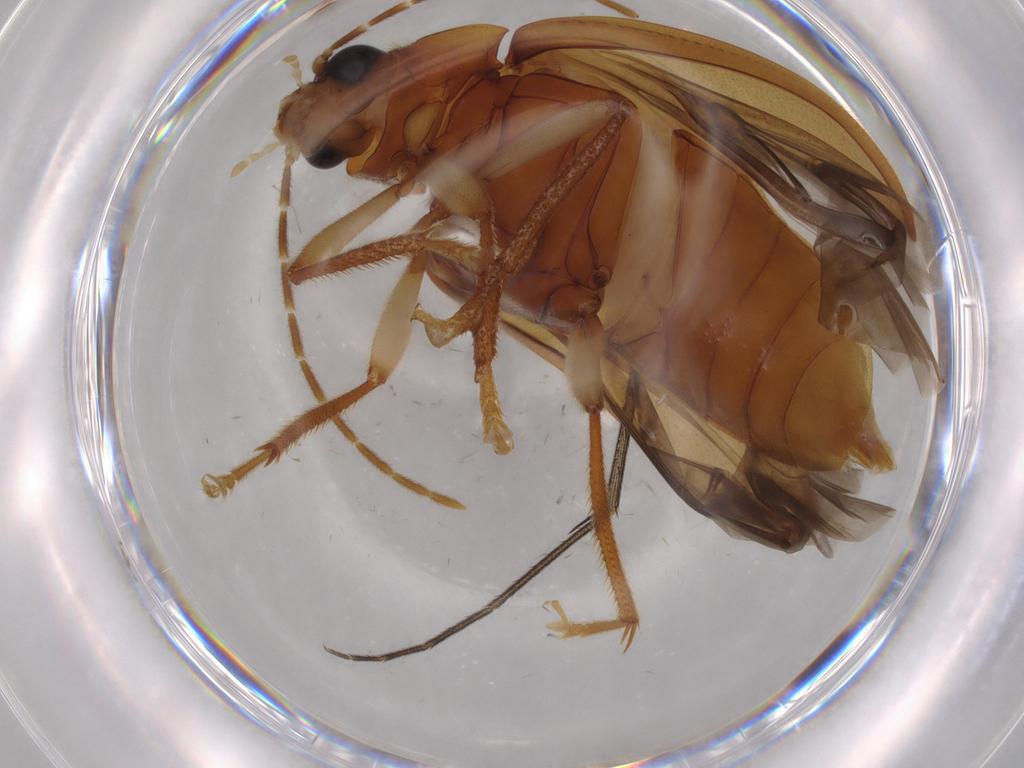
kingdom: Animalia
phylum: Arthropoda
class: Insecta
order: Coleoptera
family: Ptilodactylidae
